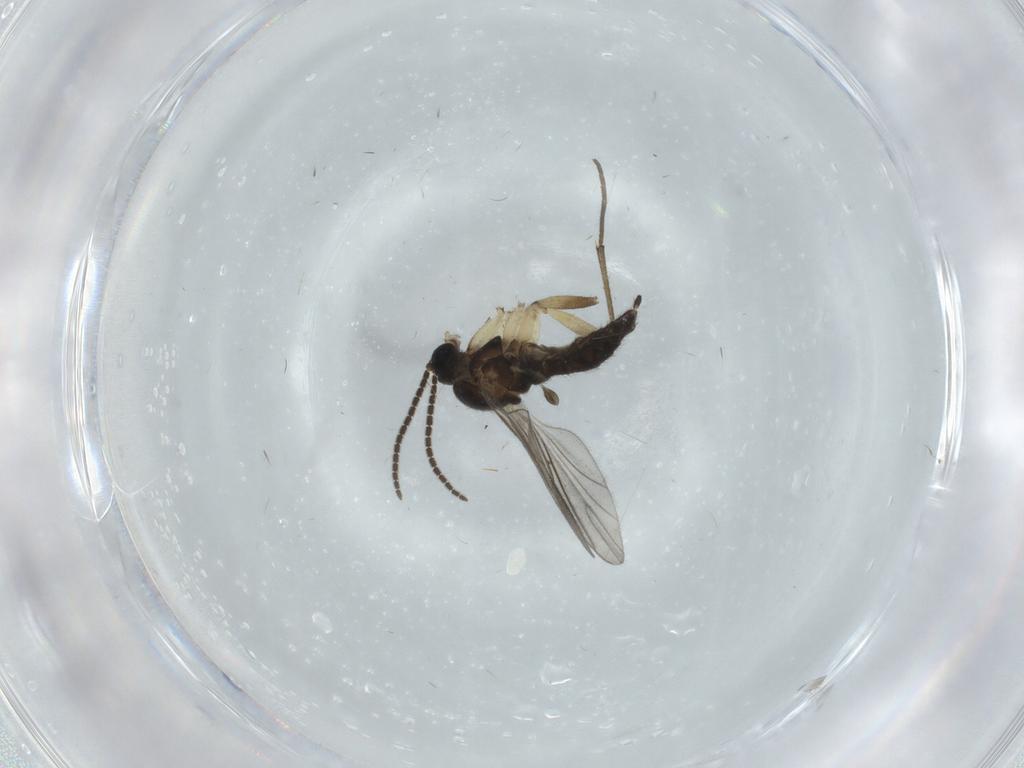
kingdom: Animalia
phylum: Arthropoda
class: Insecta
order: Diptera
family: Sciaridae
